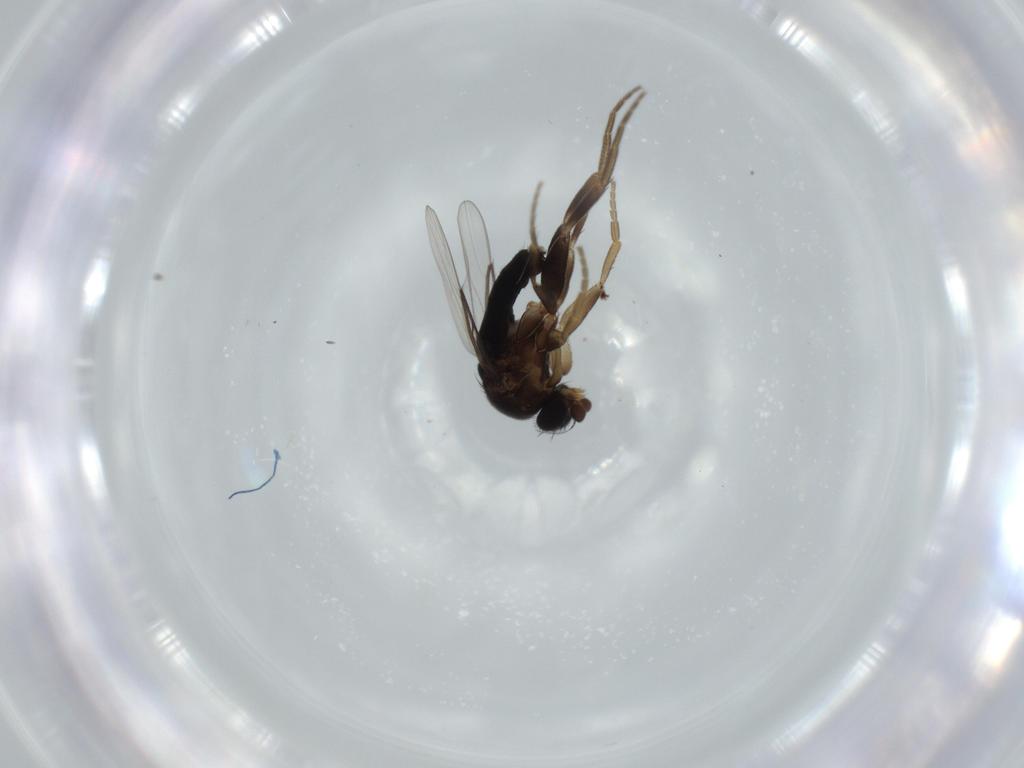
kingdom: Animalia
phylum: Arthropoda
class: Insecta
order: Diptera
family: Phoridae
